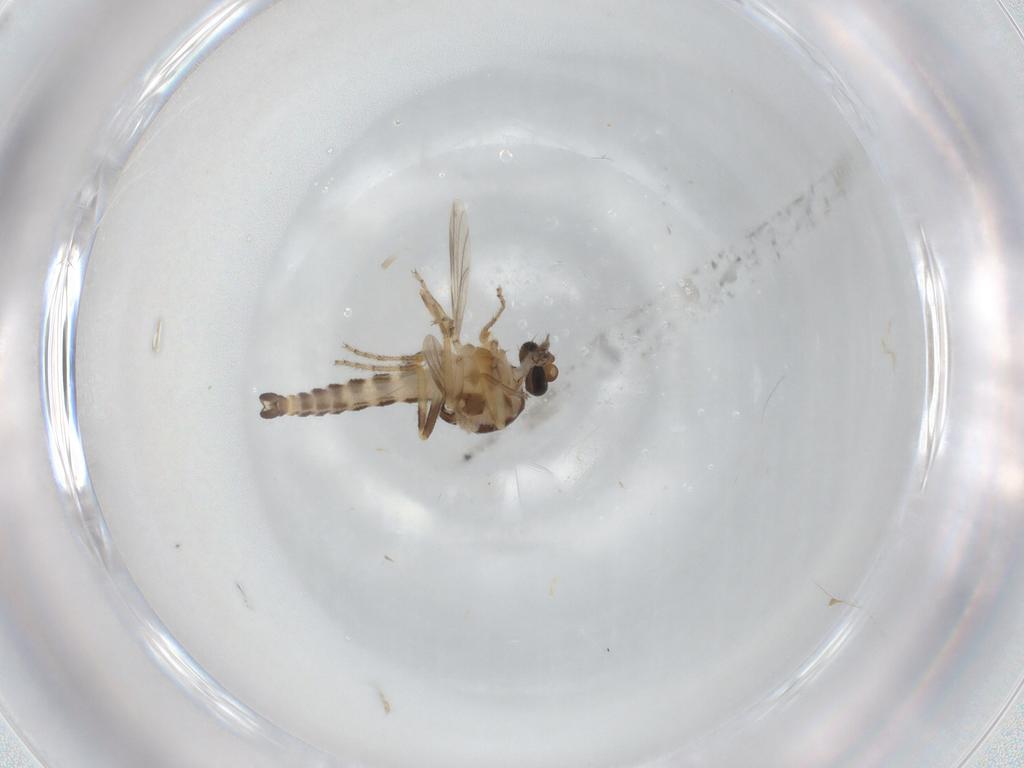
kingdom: Animalia
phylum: Arthropoda
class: Insecta
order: Diptera
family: Ceratopogonidae
